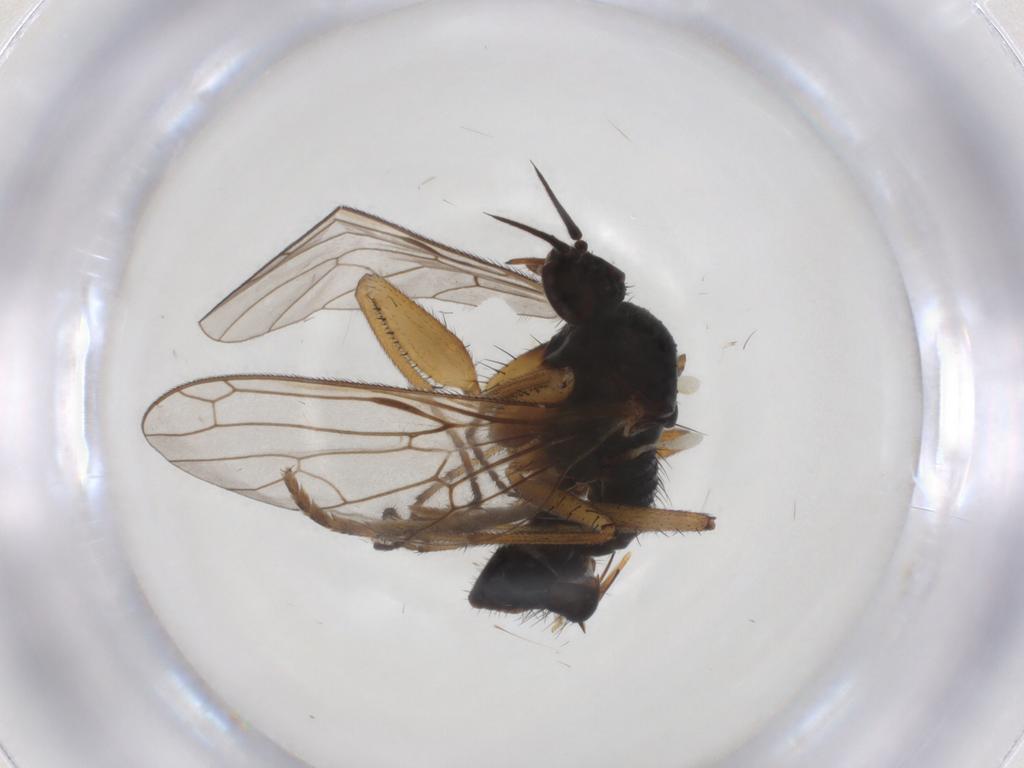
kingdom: Animalia
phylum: Arthropoda
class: Insecta
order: Diptera
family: Empididae
